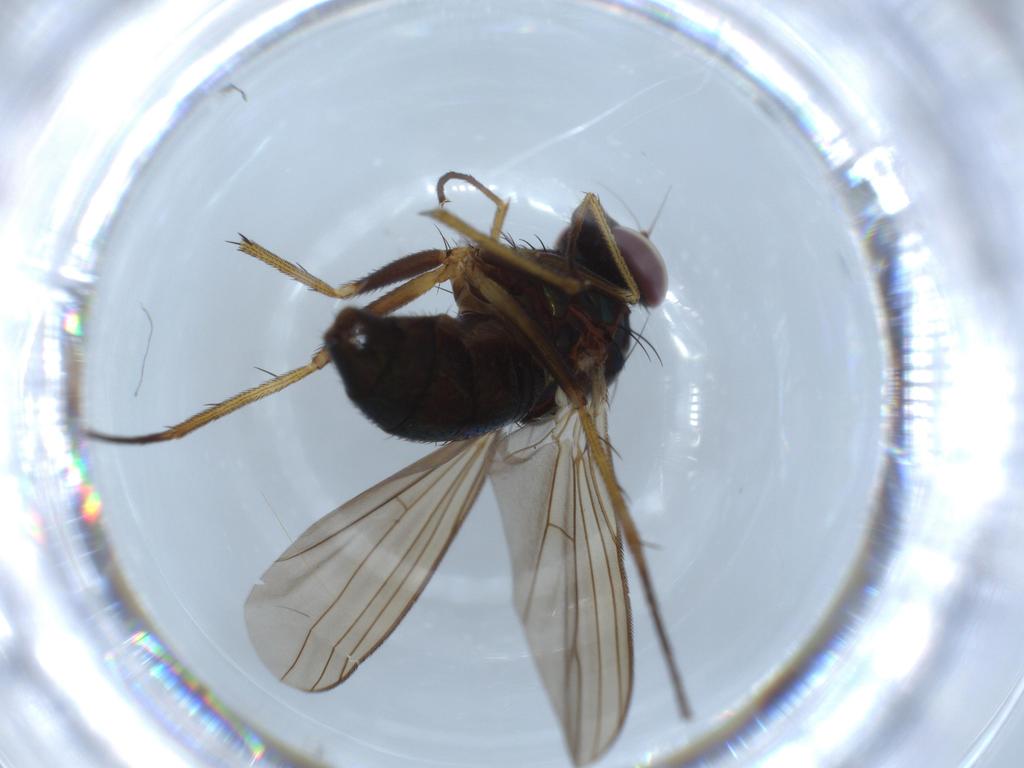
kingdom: Animalia
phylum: Arthropoda
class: Insecta
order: Diptera
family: Dolichopodidae
